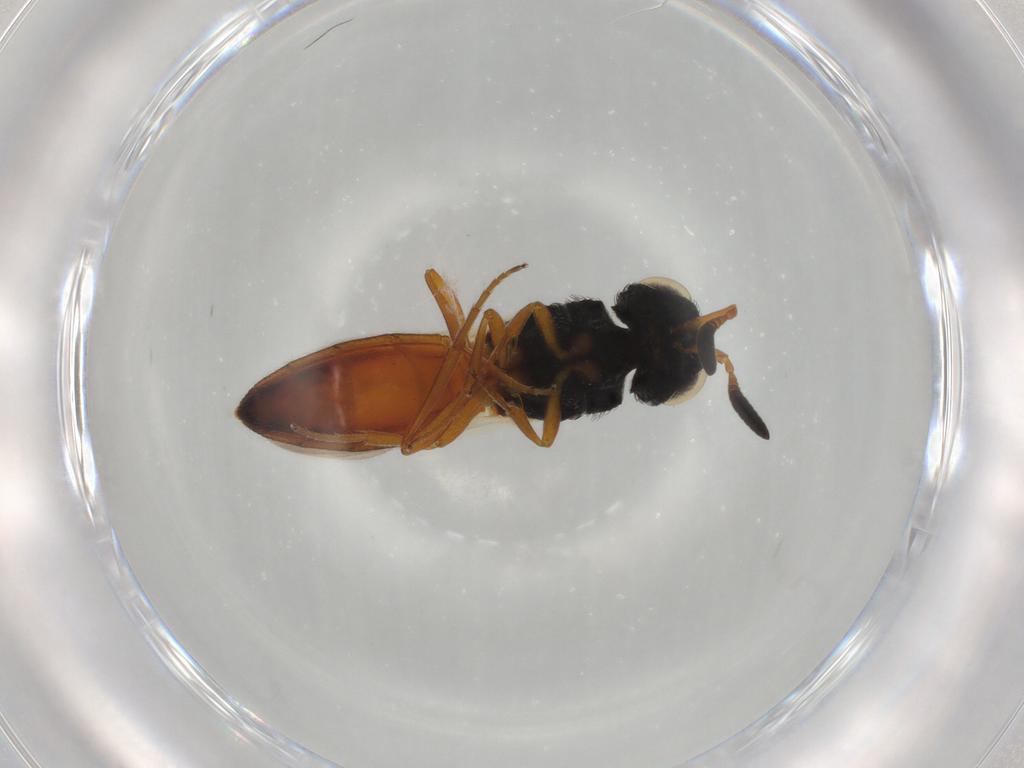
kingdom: Animalia
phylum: Arthropoda
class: Insecta
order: Hymenoptera
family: Scelionidae
